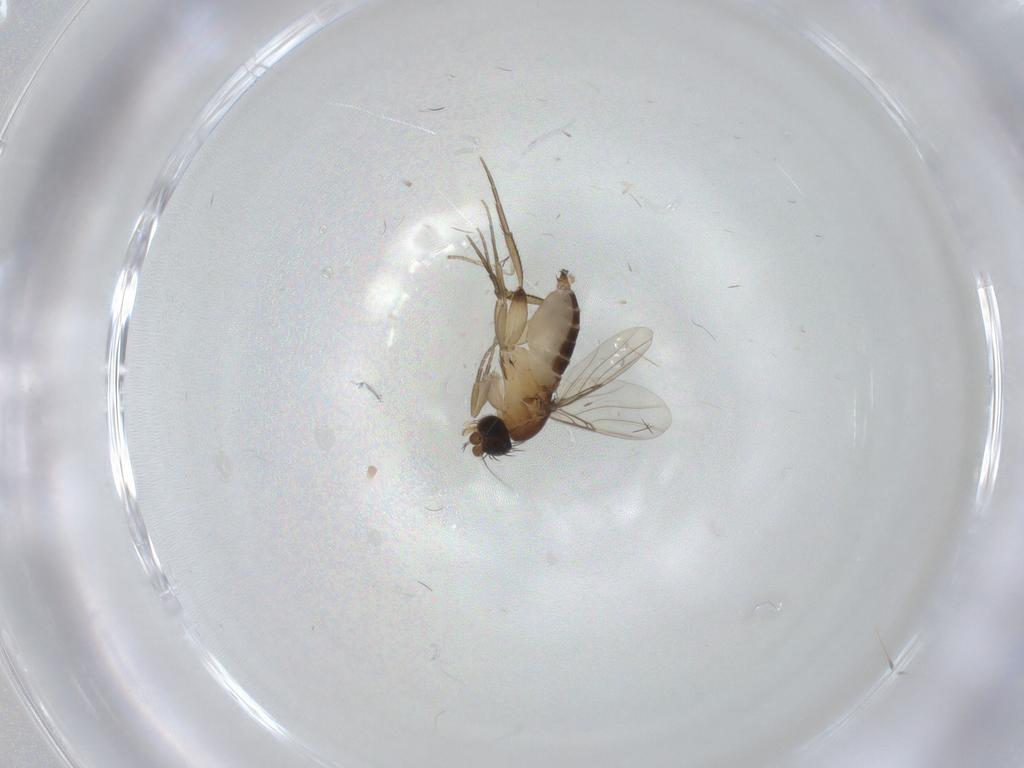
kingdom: Animalia
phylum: Arthropoda
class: Insecta
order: Diptera
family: Phoridae
